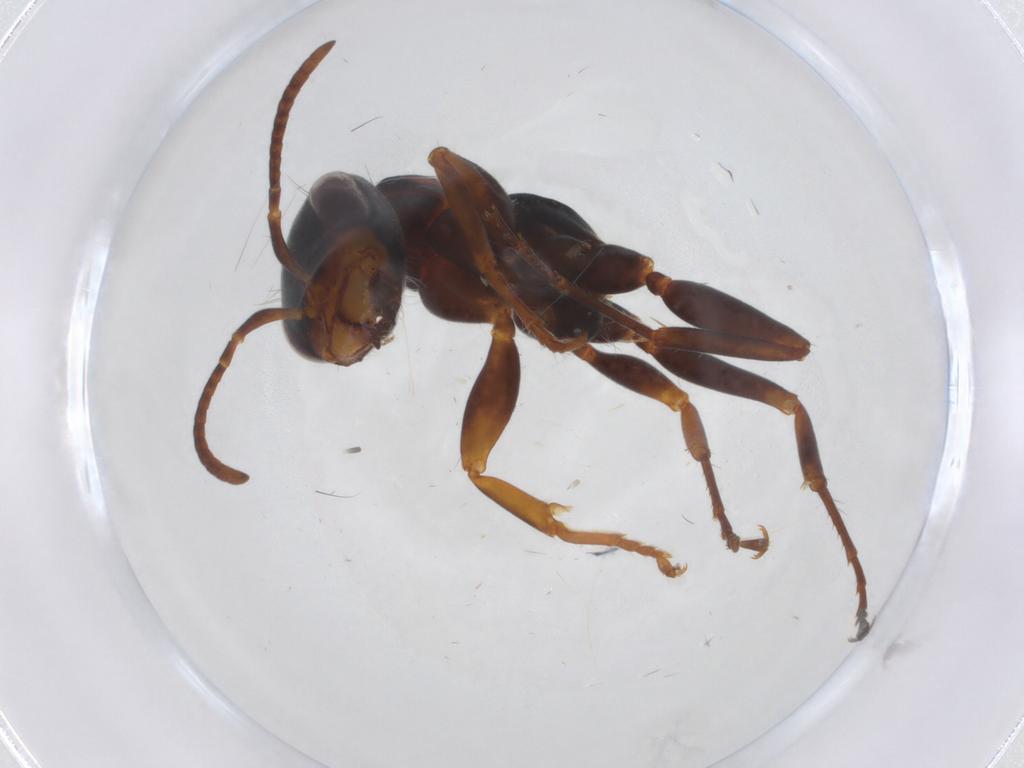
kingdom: Animalia
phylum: Arthropoda
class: Insecta
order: Hymenoptera
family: Formicidae
